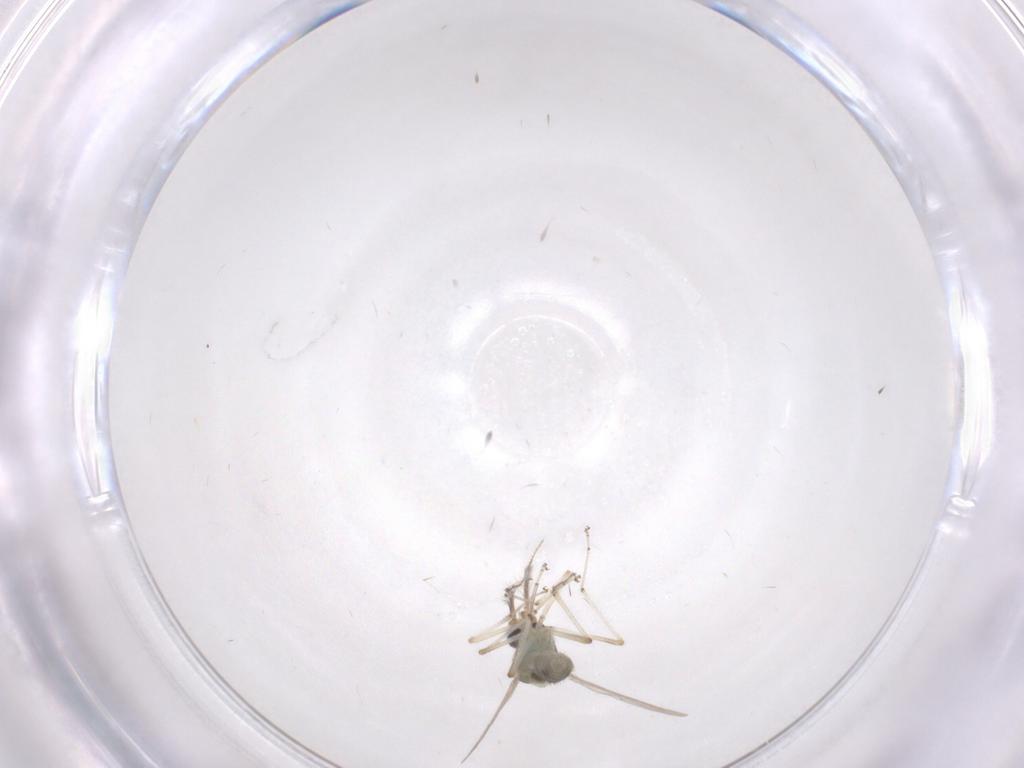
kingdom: Animalia
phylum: Arthropoda
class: Insecta
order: Diptera
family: Ceratopogonidae
